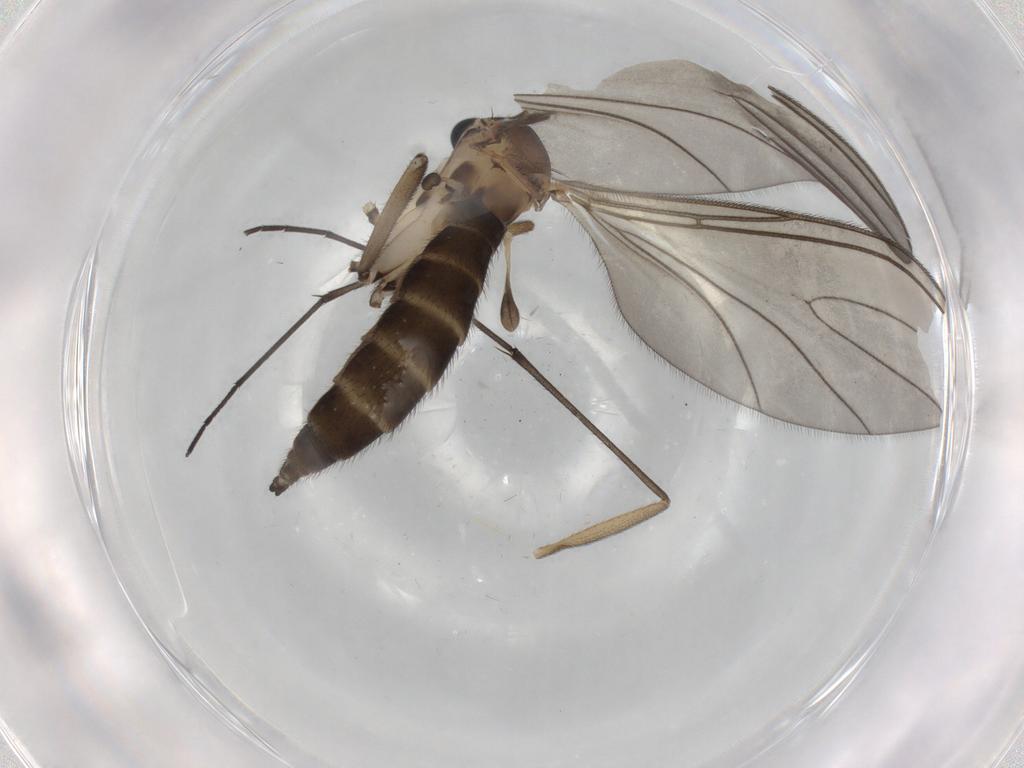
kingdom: Animalia
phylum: Arthropoda
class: Insecta
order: Diptera
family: Sciaridae
